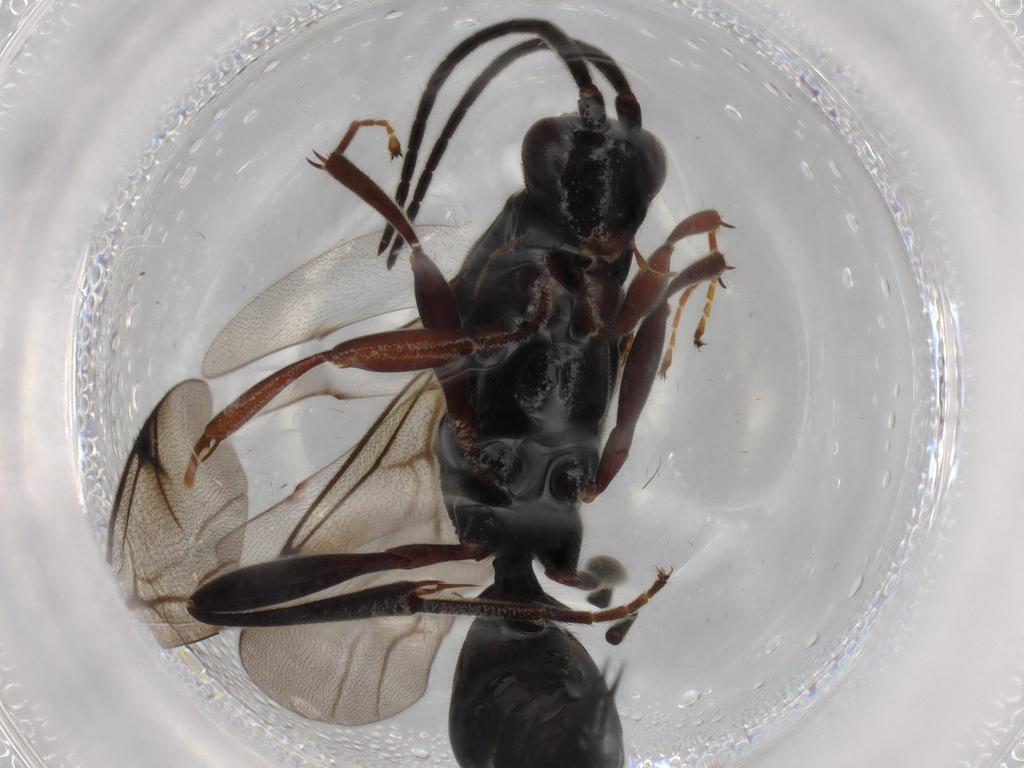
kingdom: Animalia
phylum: Arthropoda
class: Insecta
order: Hymenoptera
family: Proctotrupidae
